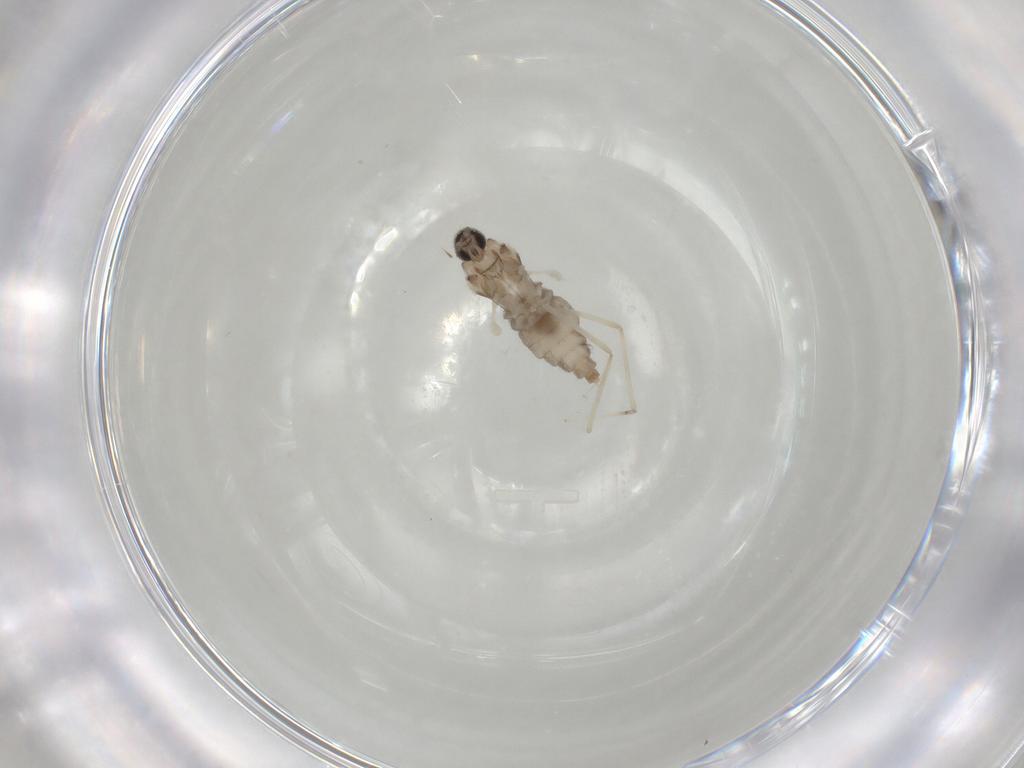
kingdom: Animalia
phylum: Arthropoda
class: Insecta
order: Diptera
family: Cecidomyiidae
